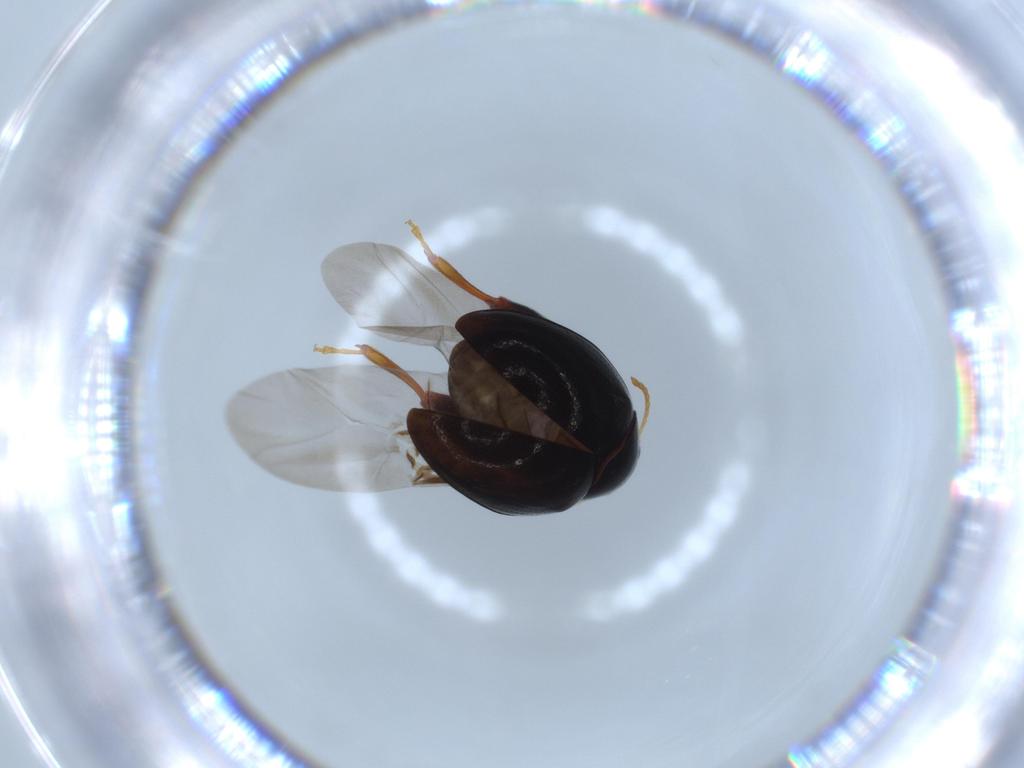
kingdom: Animalia
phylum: Arthropoda
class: Insecta
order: Coleoptera
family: Chrysomelidae
